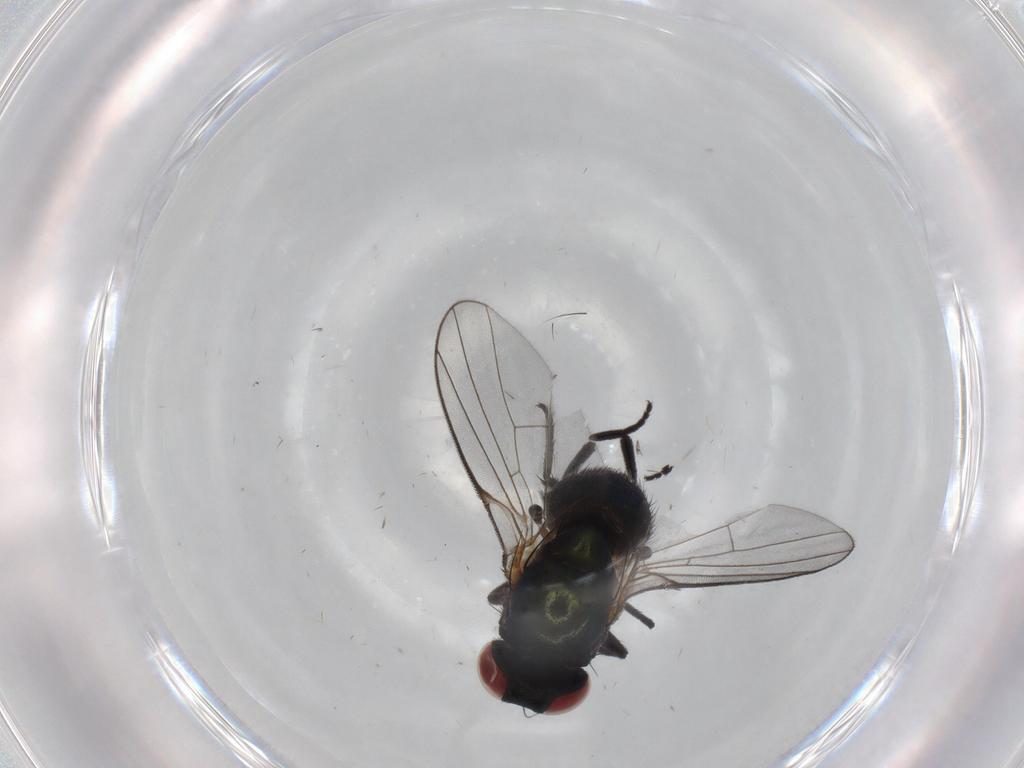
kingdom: Animalia
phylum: Arthropoda
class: Insecta
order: Diptera
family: Agromyzidae
